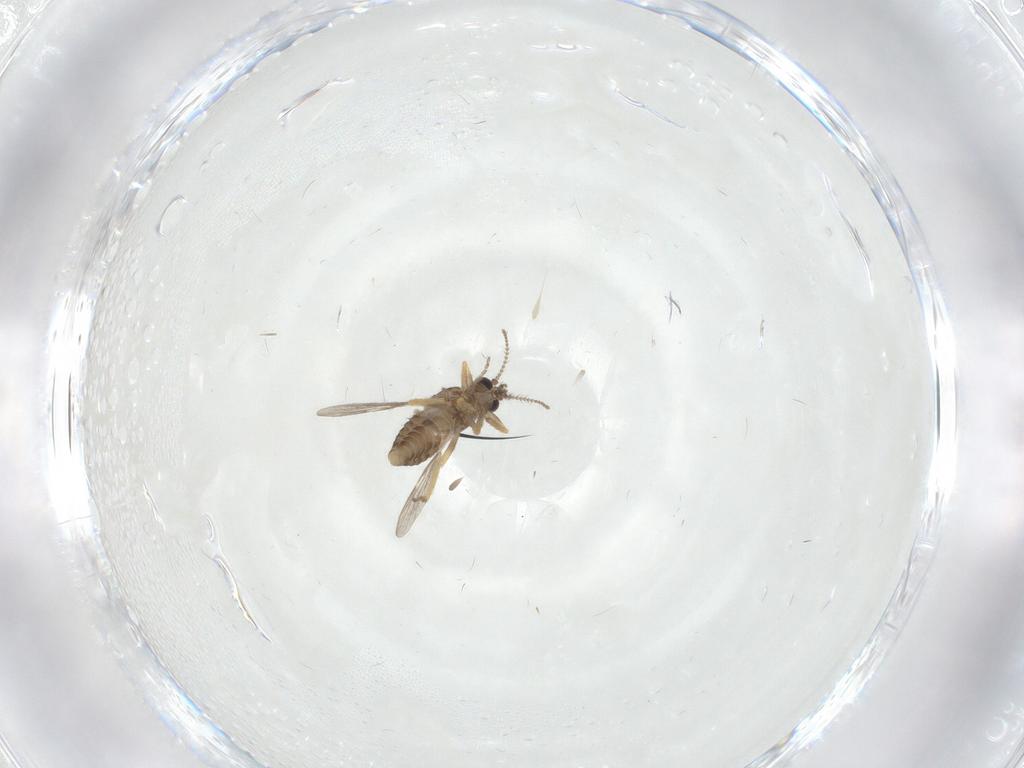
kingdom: Animalia
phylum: Arthropoda
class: Insecta
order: Diptera
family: Ceratopogonidae
